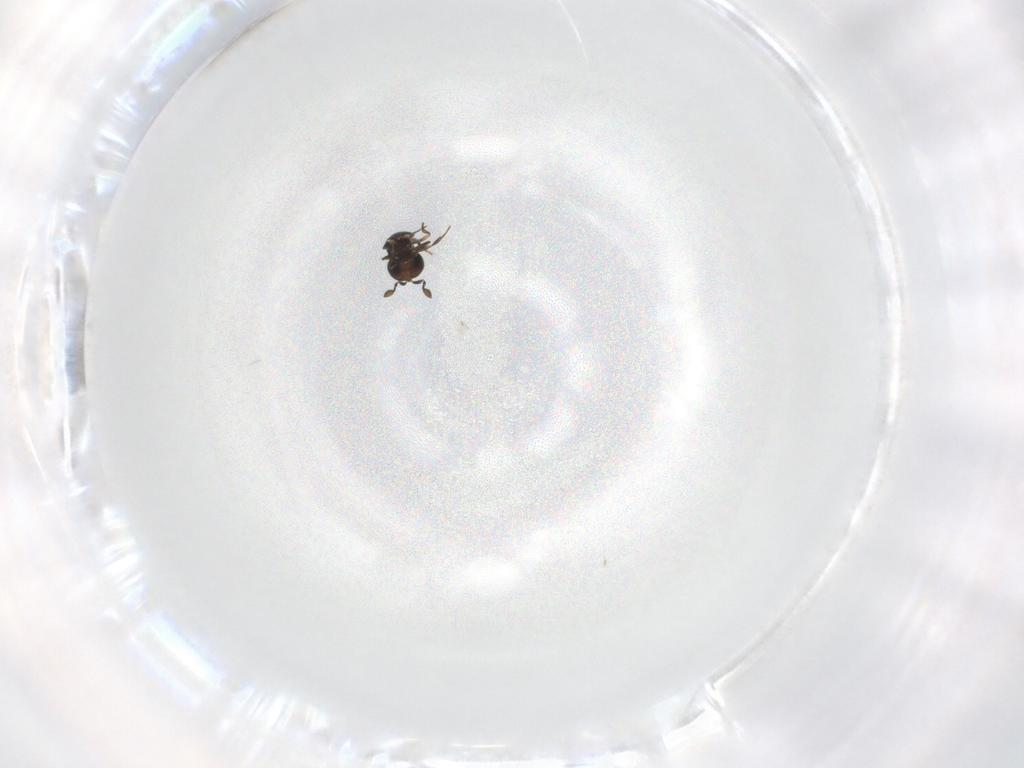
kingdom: Animalia
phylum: Arthropoda
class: Insecta
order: Hymenoptera
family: Scelionidae
